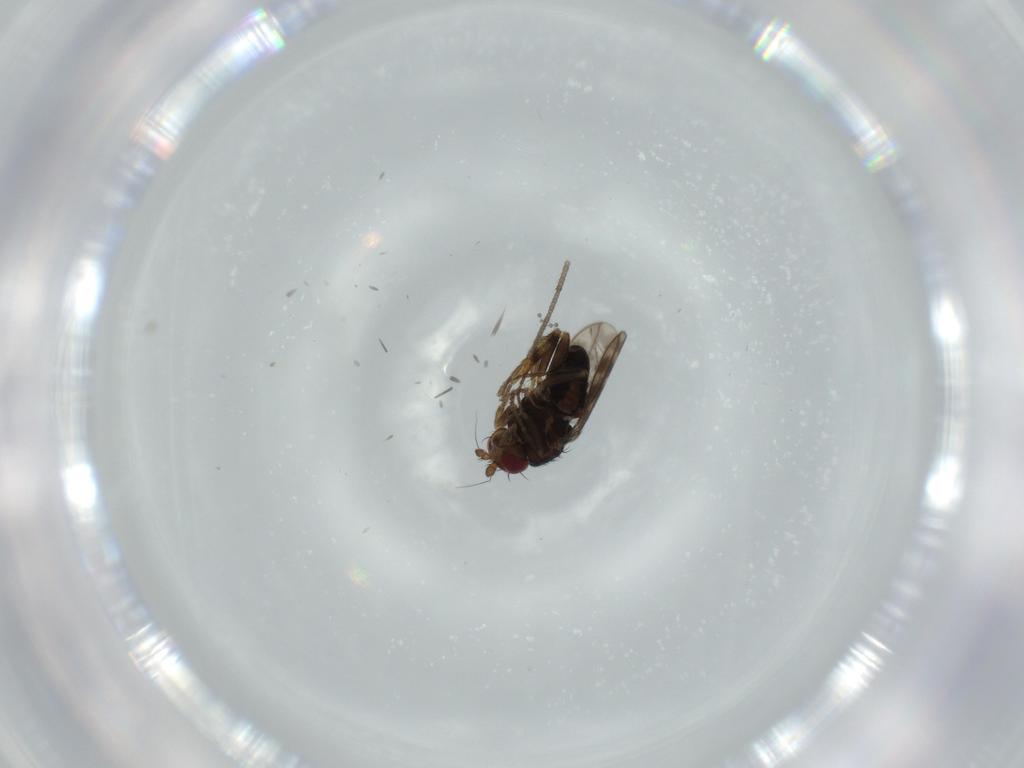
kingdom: Animalia
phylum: Arthropoda
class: Insecta
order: Diptera
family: Sphaeroceridae
